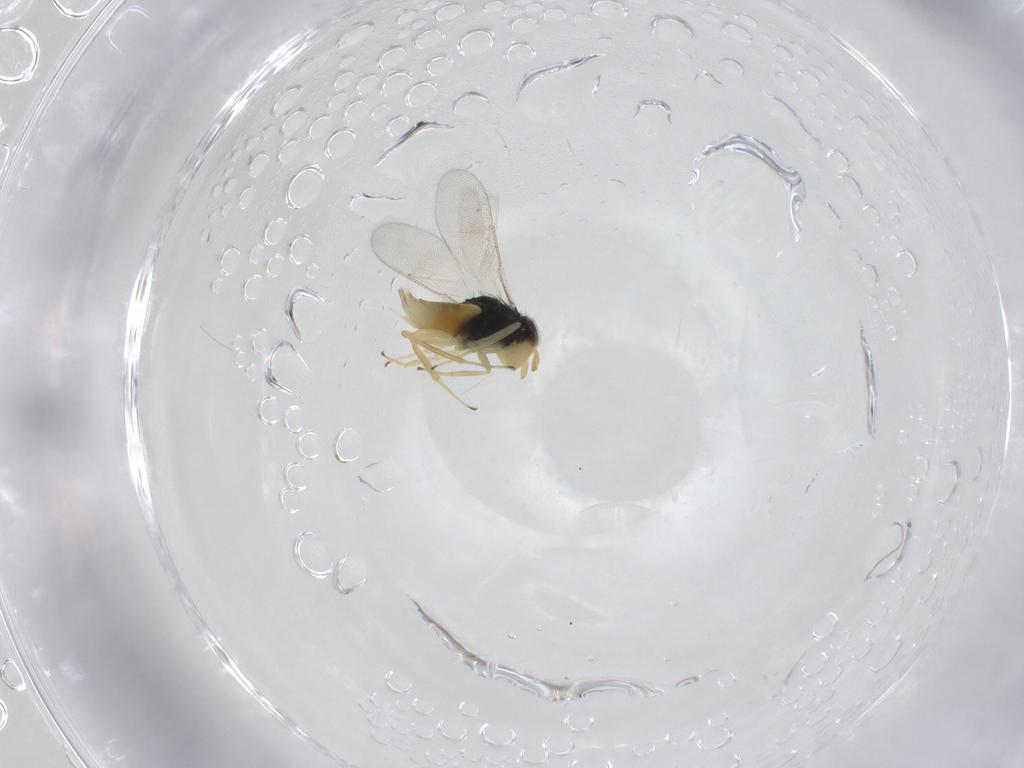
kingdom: Animalia
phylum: Arthropoda
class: Insecta
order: Hymenoptera
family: Aphelinidae
